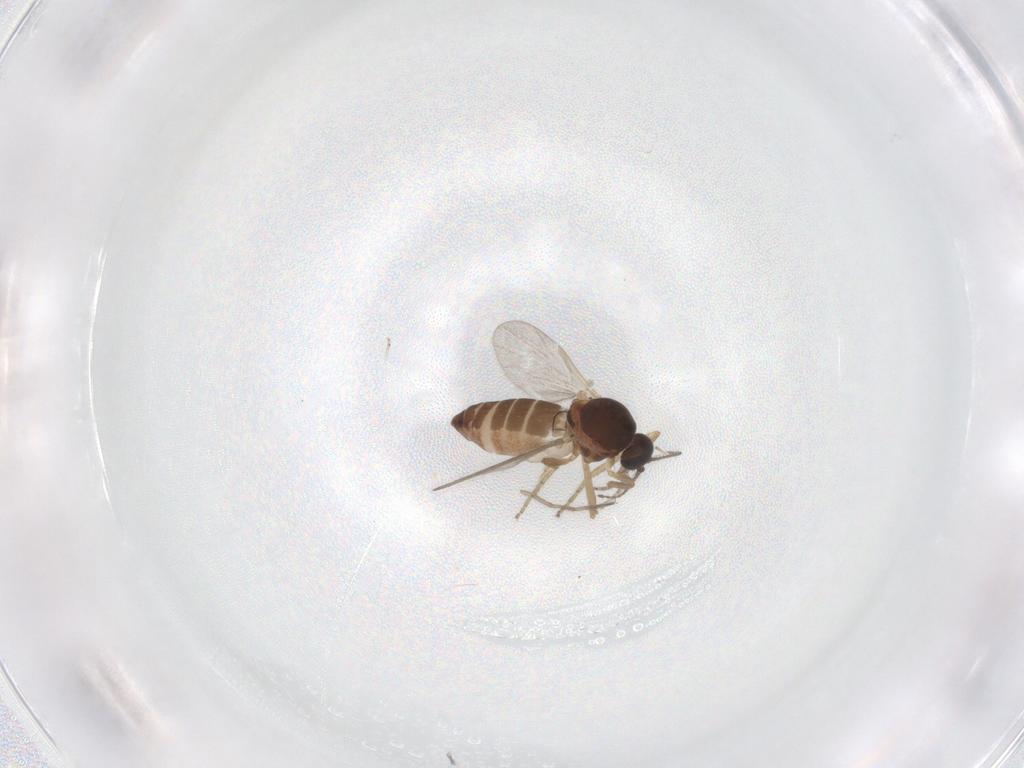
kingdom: Animalia
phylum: Arthropoda
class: Insecta
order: Diptera
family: Ceratopogonidae
